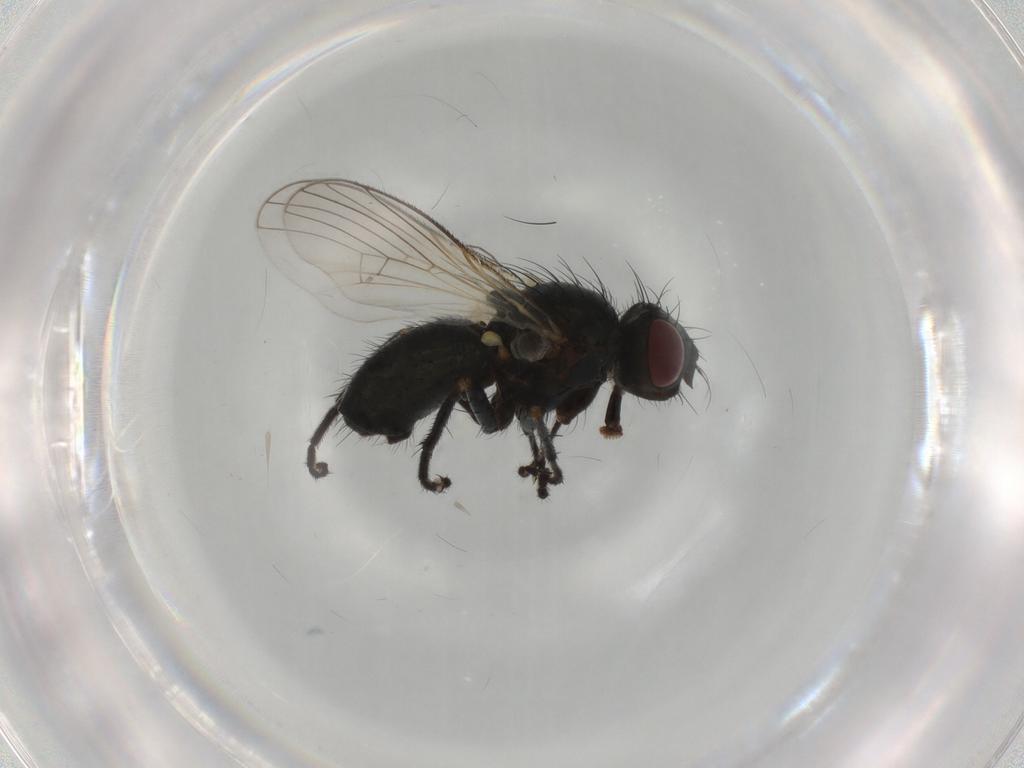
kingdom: Animalia
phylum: Arthropoda
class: Insecta
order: Diptera
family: Muscidae
